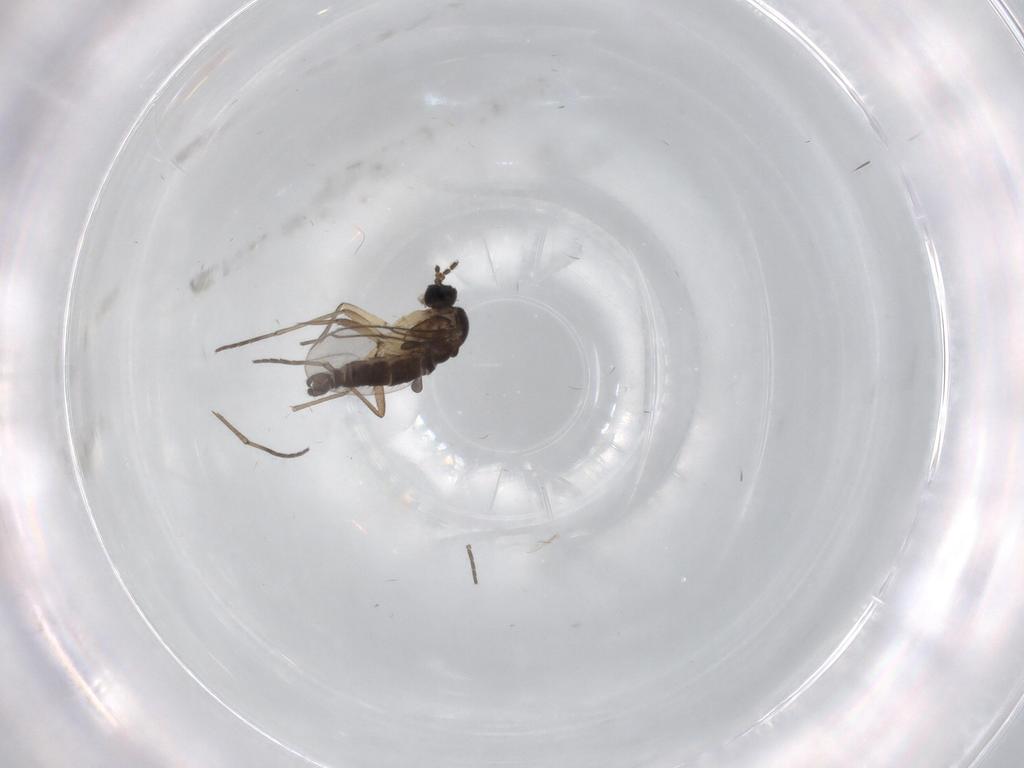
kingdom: Animalia
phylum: Arthropoda
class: Insecta
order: Diptera
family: Sciaridae
